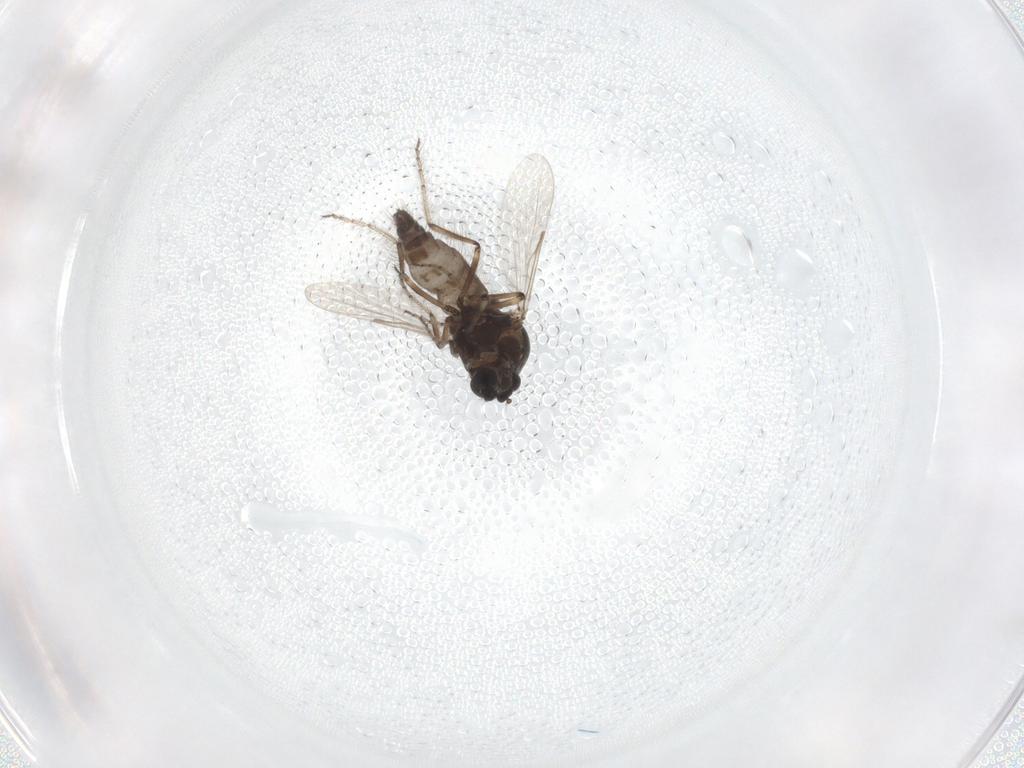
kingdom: Animalia
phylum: Arthropoda
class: Insecta
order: Diptera
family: Ceratopogonidae
